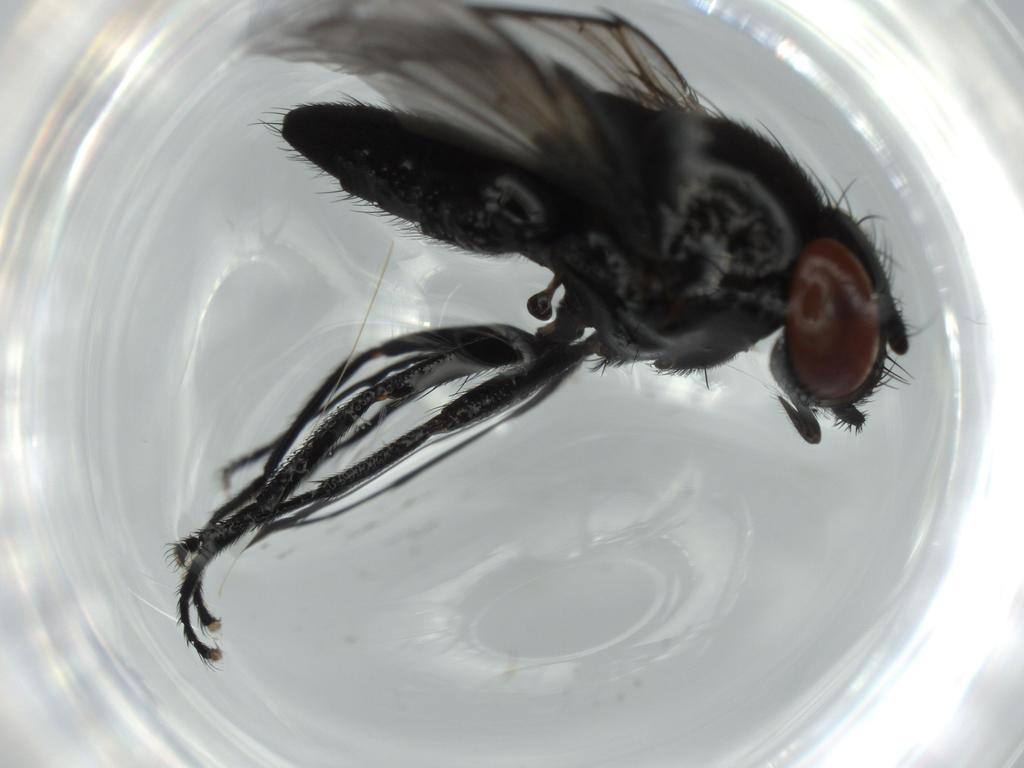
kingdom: Animalia
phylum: Arthropoda
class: Insecta
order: Diptera
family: Milichiidae
